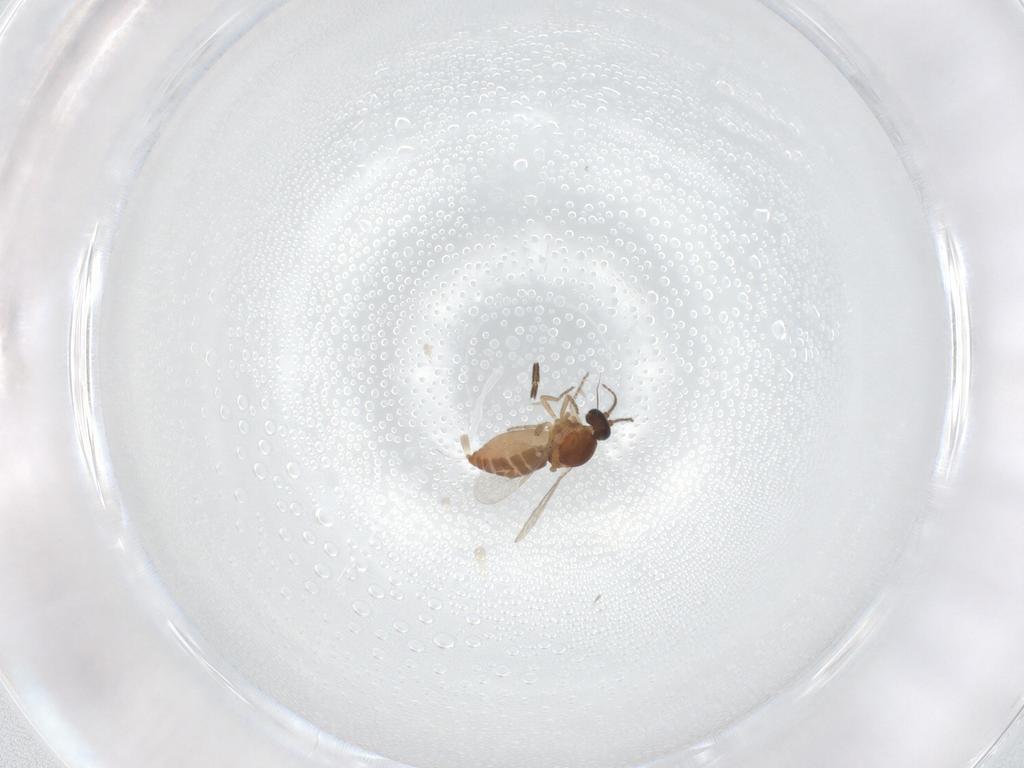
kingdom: Animalia
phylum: Arthropoda
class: Insecta
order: Diptera
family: Ceratopogonidae
